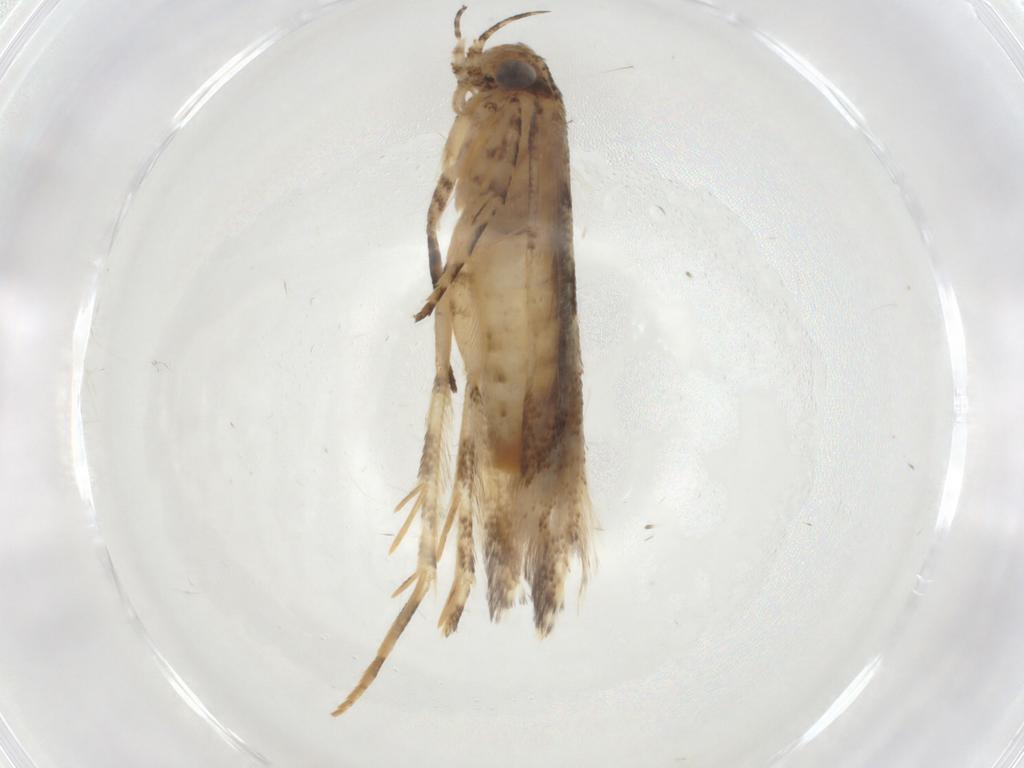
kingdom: Animalia
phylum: Arthropoda
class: Insecta
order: Lepidoptera
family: Gelechiidae
